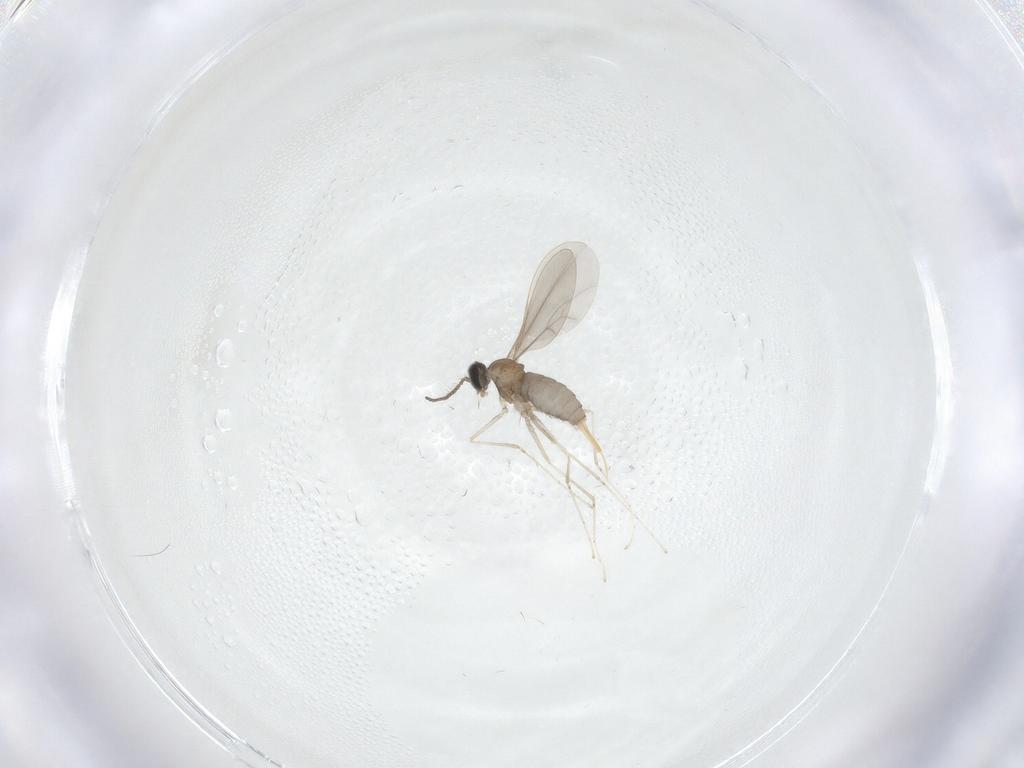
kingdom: Animalia
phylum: Arthropoda
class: Insecta
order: Diptera
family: Cecidomyiidae
